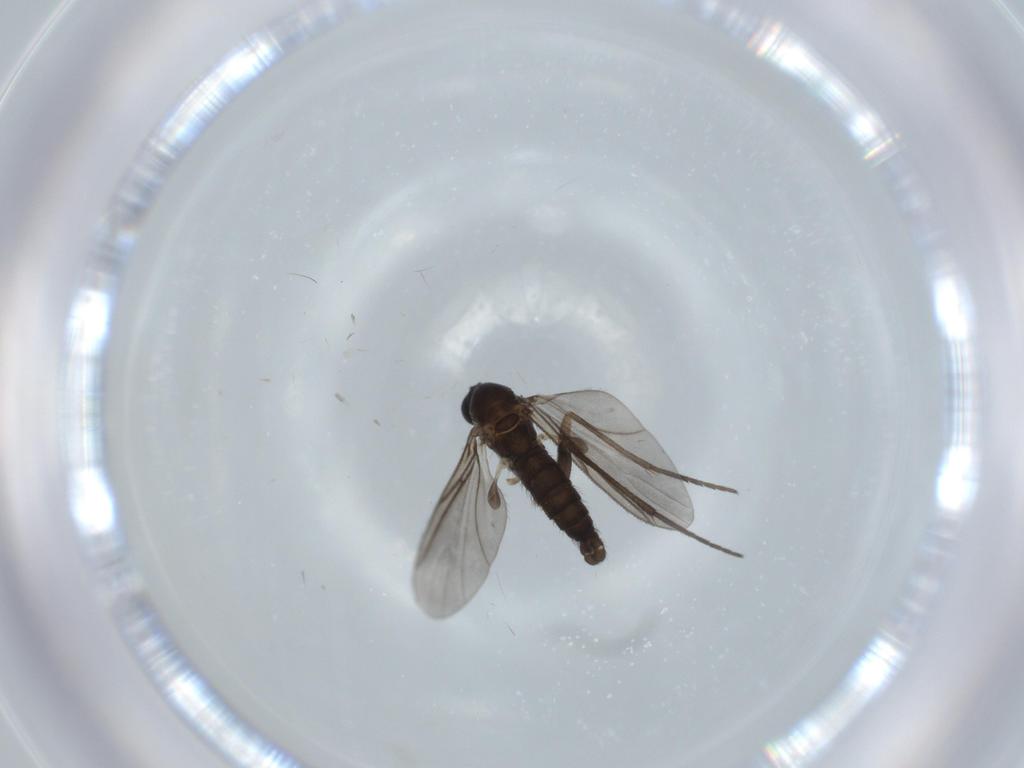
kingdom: Animalia
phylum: Arthropoda
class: Insecta
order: Diptera
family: Sciaridae
